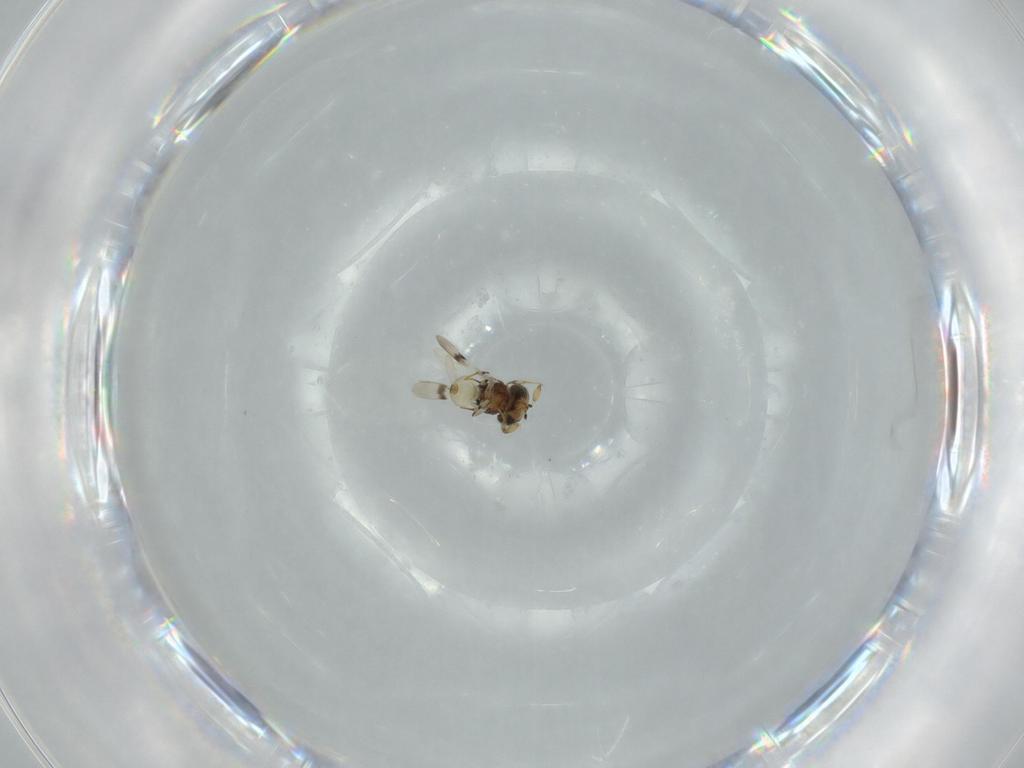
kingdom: Animalia
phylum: Arthropoda
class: Insecta
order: Hymenoptera
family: Scelionidae
